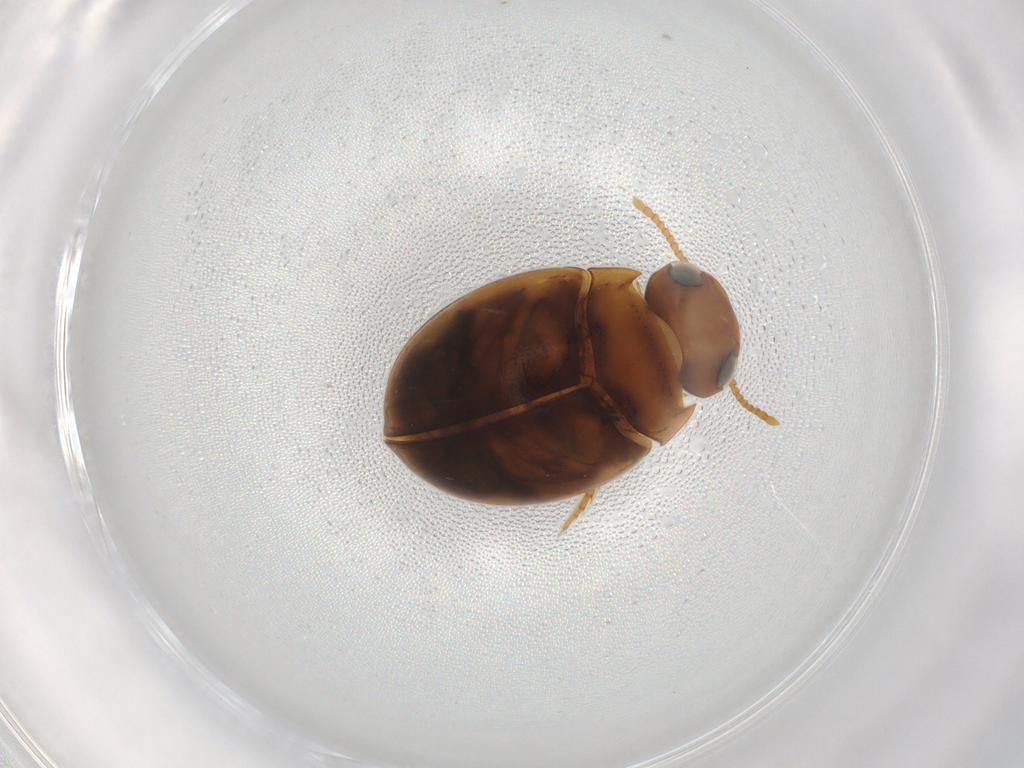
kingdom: Animalia
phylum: Arthropoda
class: Insecta
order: Coleoptera
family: Dytiscidae
